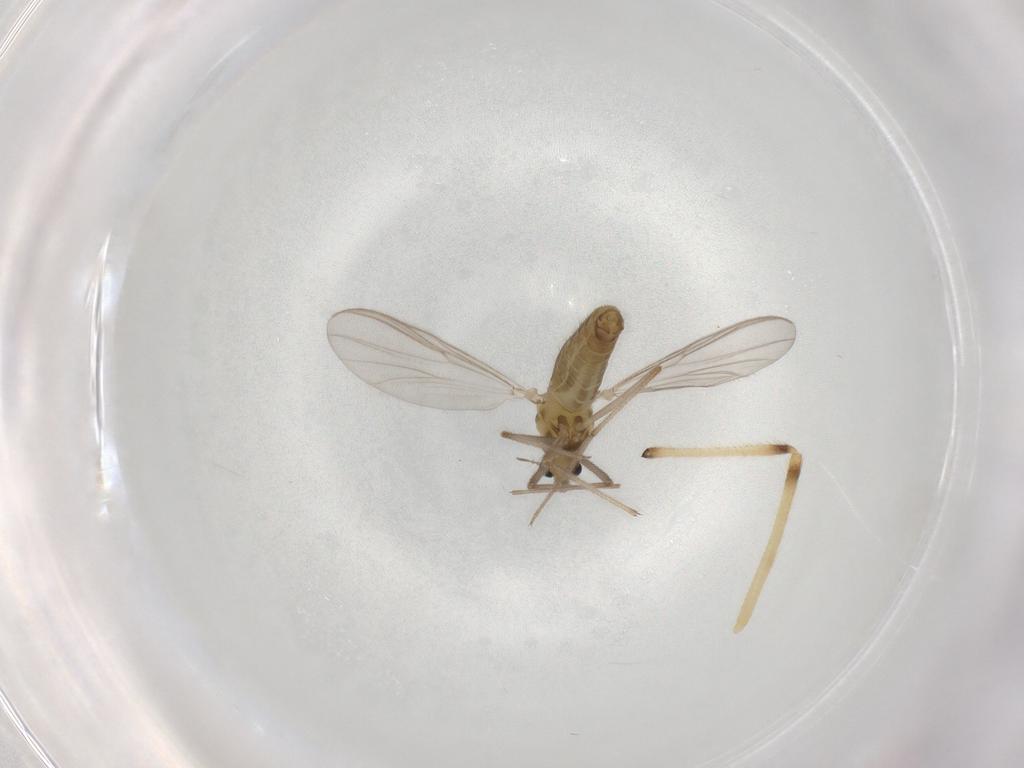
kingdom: Animalia
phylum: Arthropoda
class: Insecta
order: Diptera
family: Chironomidae
